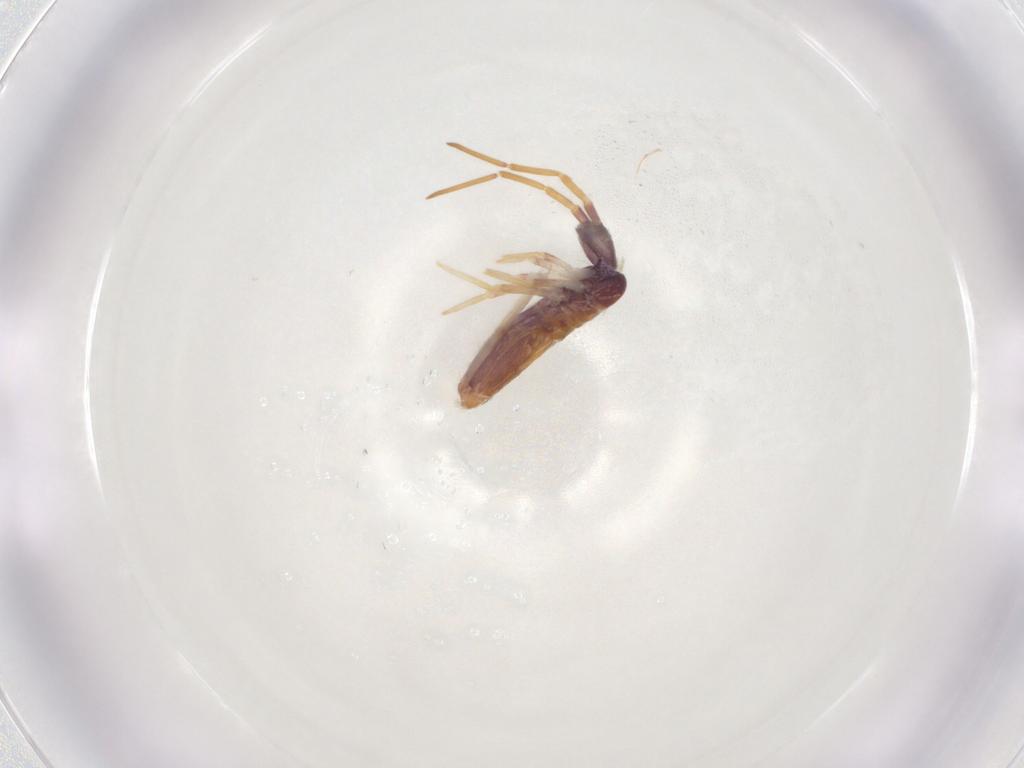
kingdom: Animalia
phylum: Arthropoda
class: Collembola
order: Entomobryomorpha
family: Entomobryidae
